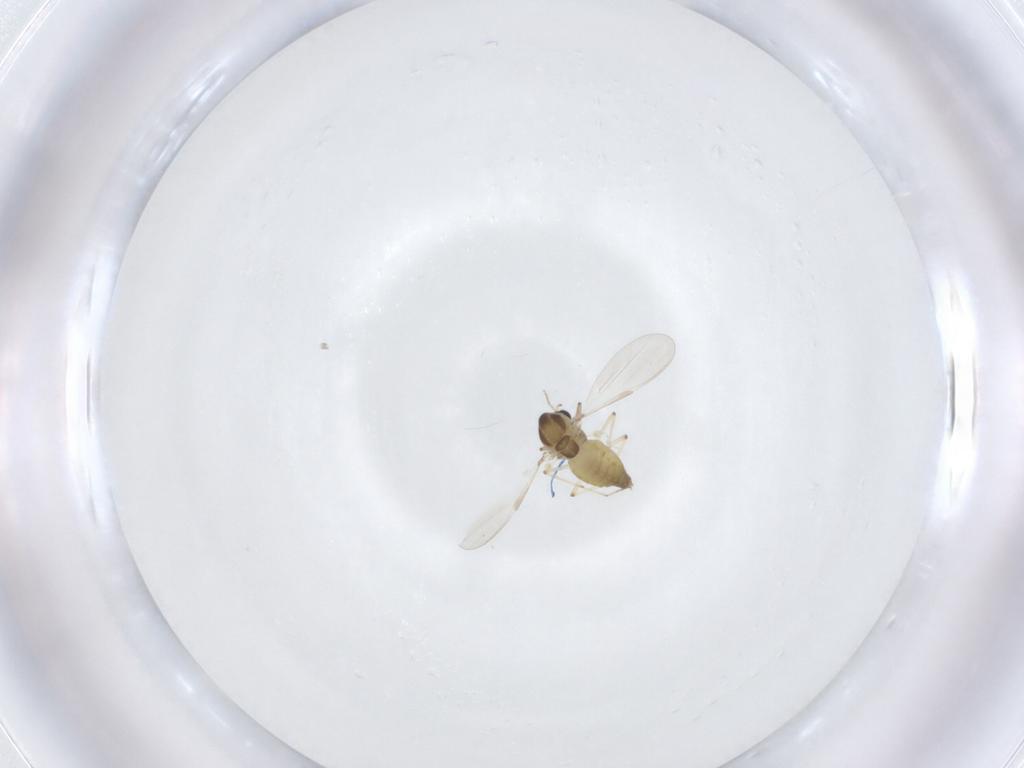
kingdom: Animalia
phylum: Arthropoda
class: Insecta
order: Diptera
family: Chironomidae
